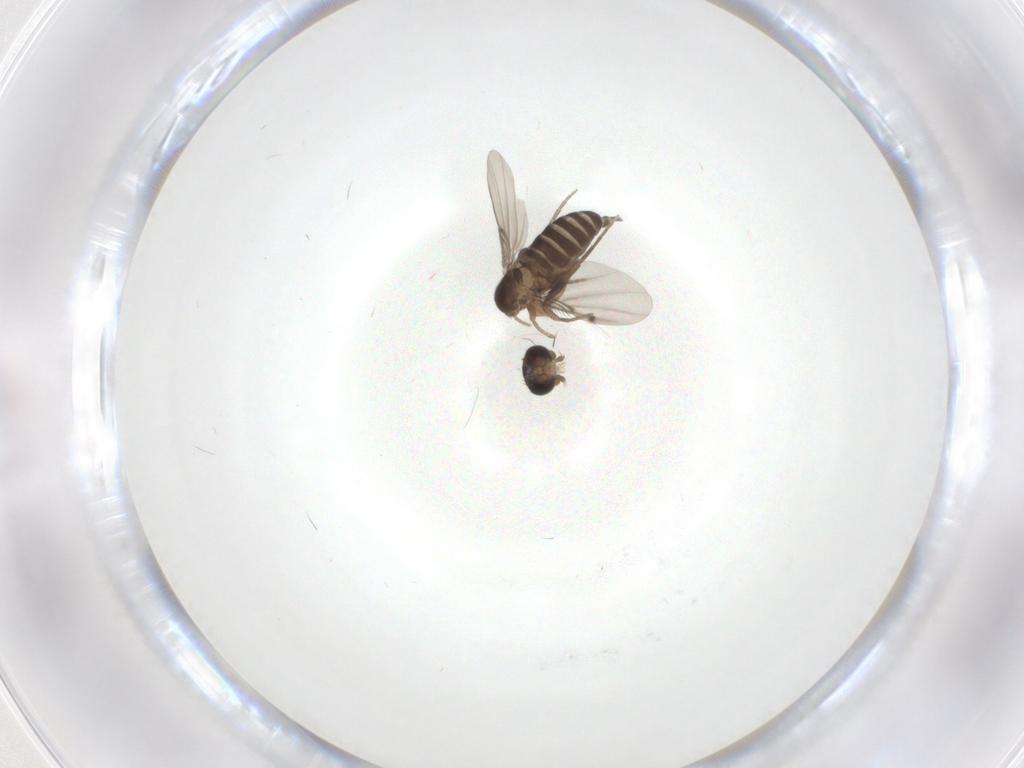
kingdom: Animalia
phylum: Arthropoda
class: Insecta
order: Diptera
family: Phoridae
